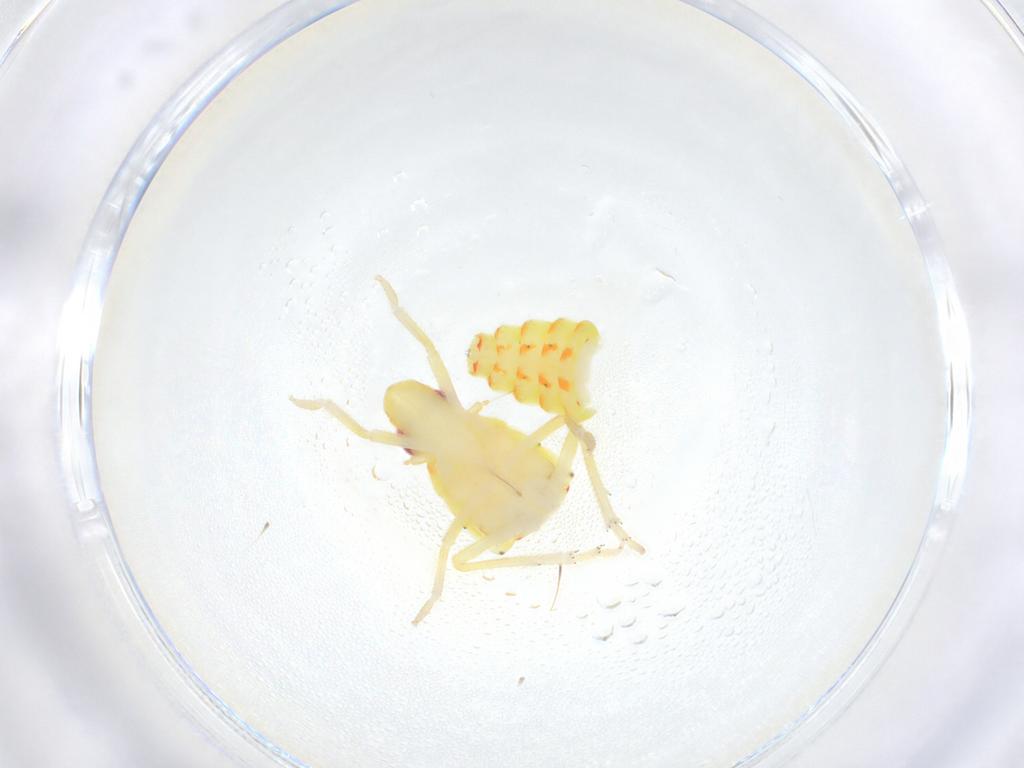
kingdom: Animalia
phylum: Arthropoda
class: Insecta
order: Hemiptera
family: Tropiduchidae
